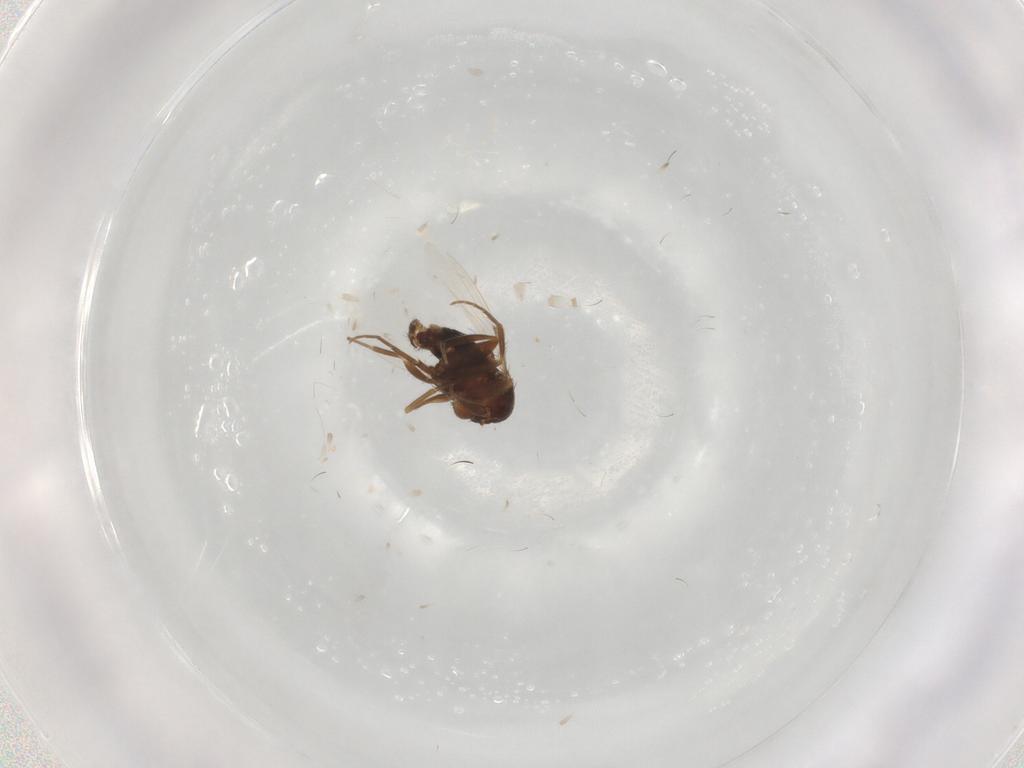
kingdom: Animalia
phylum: Arthropoda
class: Insecta
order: Diptera
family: Phoridae
